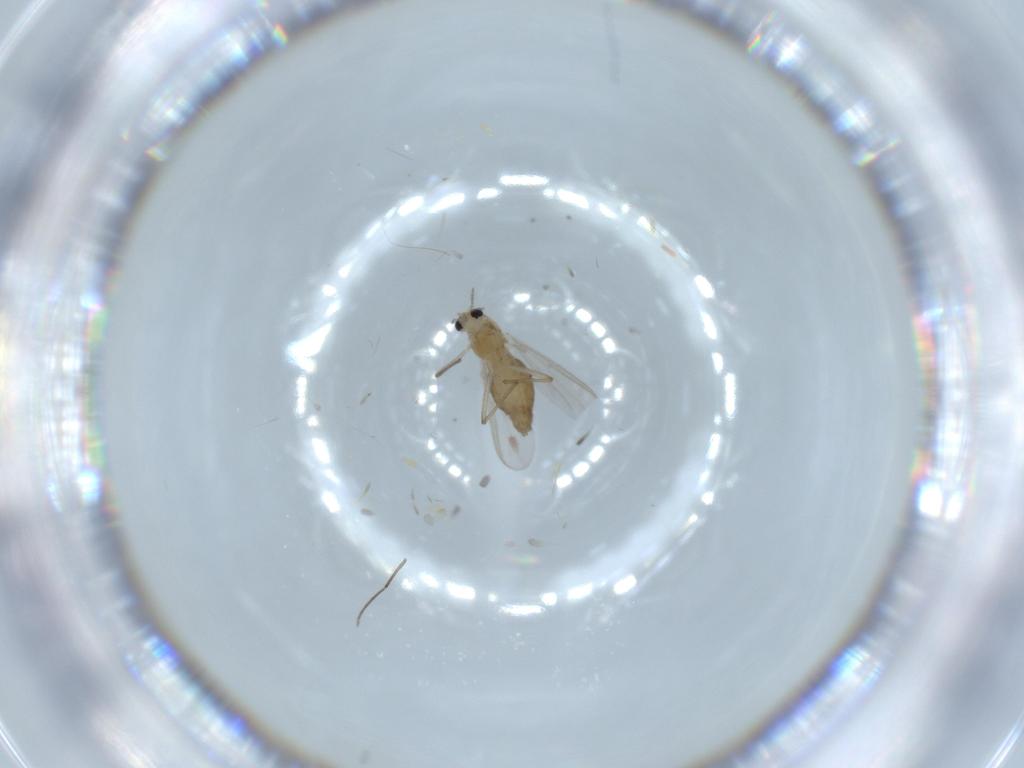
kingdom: Animalia
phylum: Arthropoda
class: Insecta
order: Diptera
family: Chironomidae
